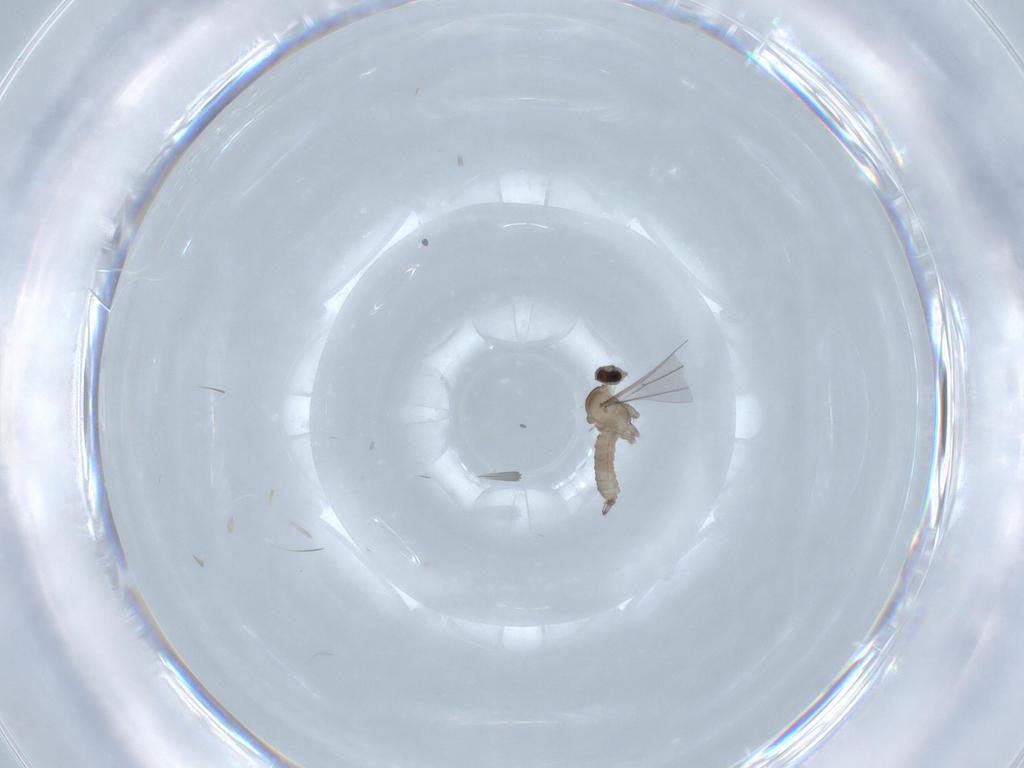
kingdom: Animalia
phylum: Arthropoda
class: Insecta
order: Diptera
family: Cecidomyiidae
